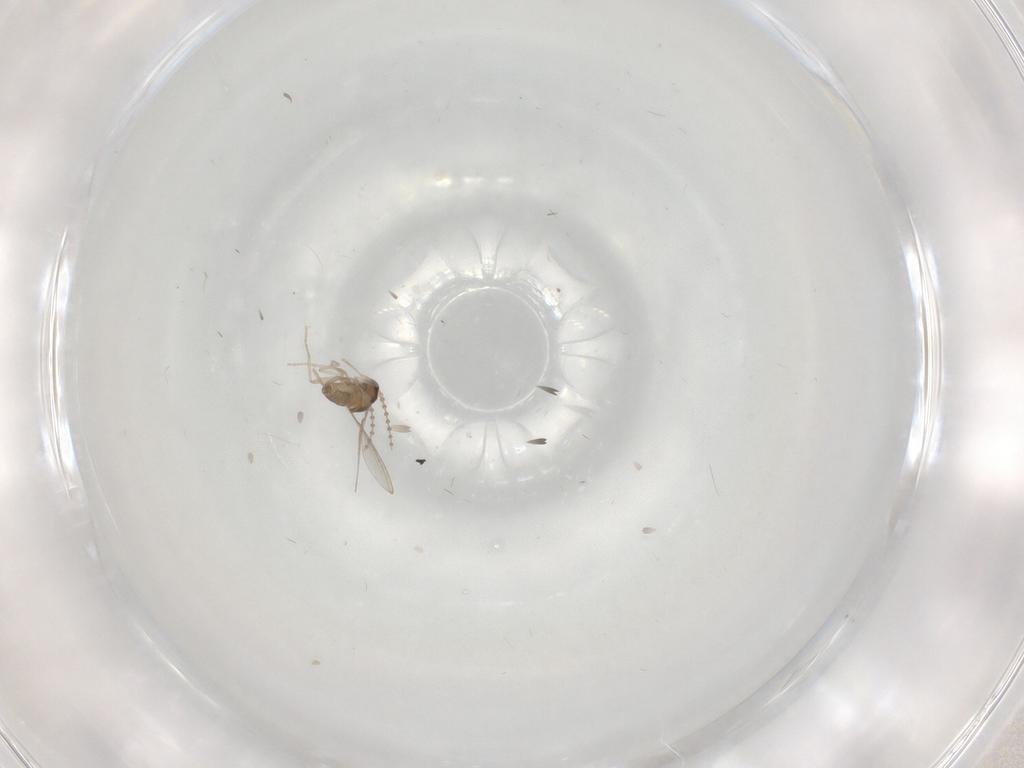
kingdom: Animalia
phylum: Arthropoda
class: Insecta
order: Diptera
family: Cecidomyiidae
